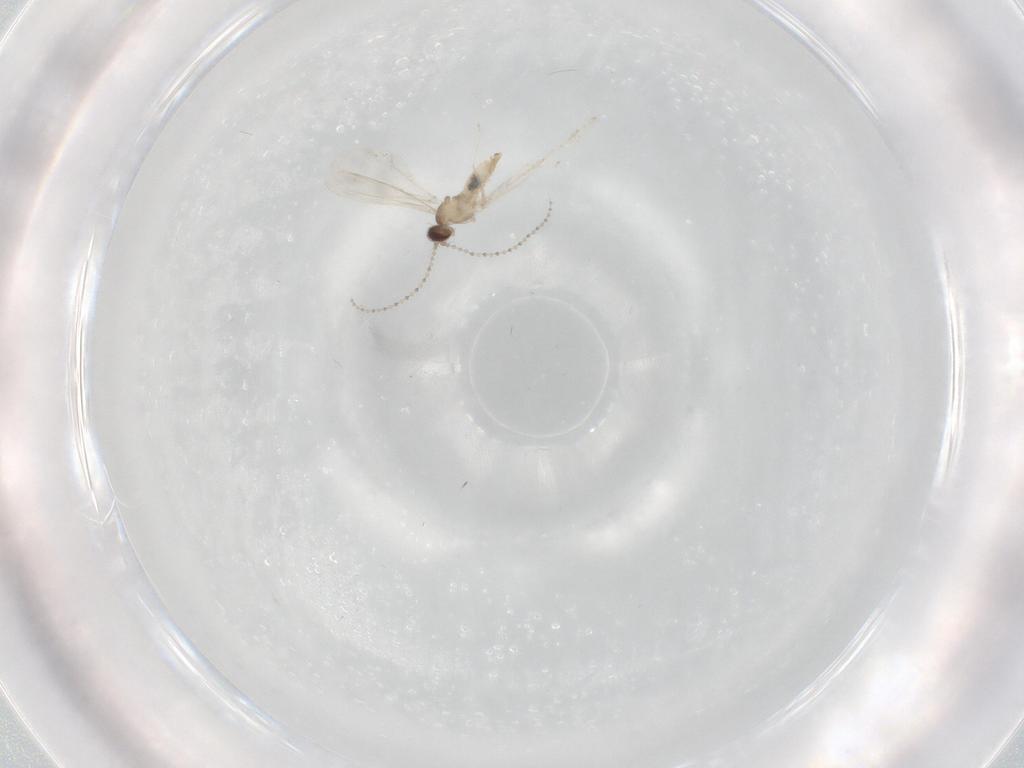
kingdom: Animalia
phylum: Arthropoda
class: Insecta
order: Diptera
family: Cecidomyiidae
